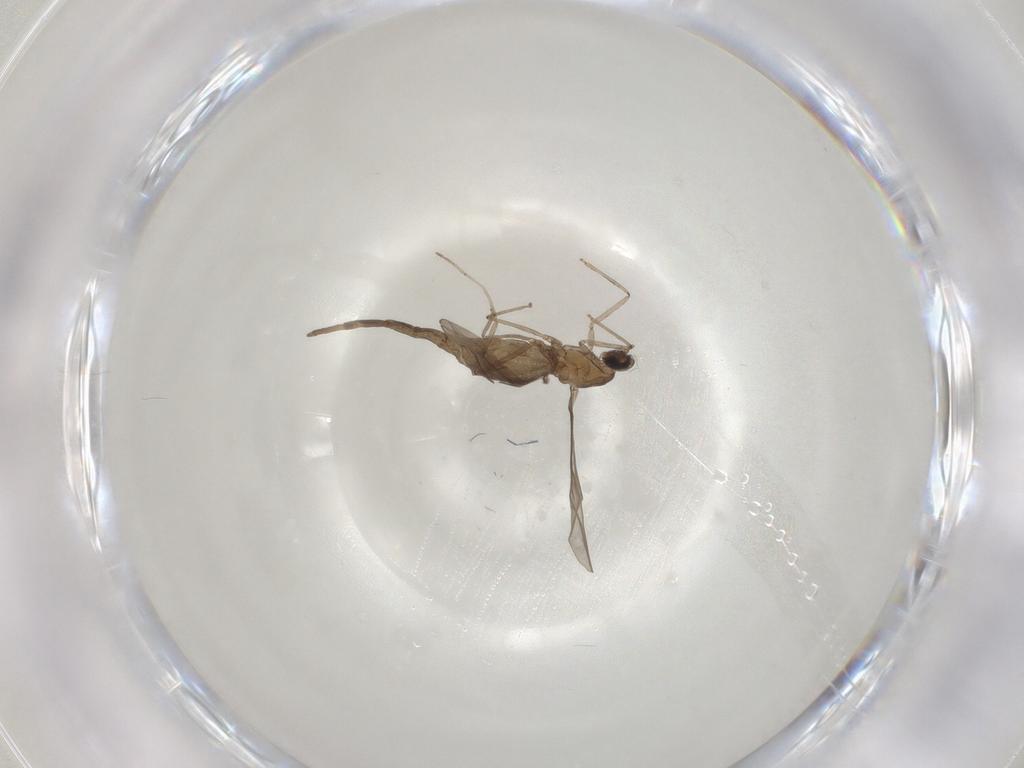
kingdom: Animalia
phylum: Arthropoda
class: Insecta
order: Diptera
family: Cecidomyiidae
